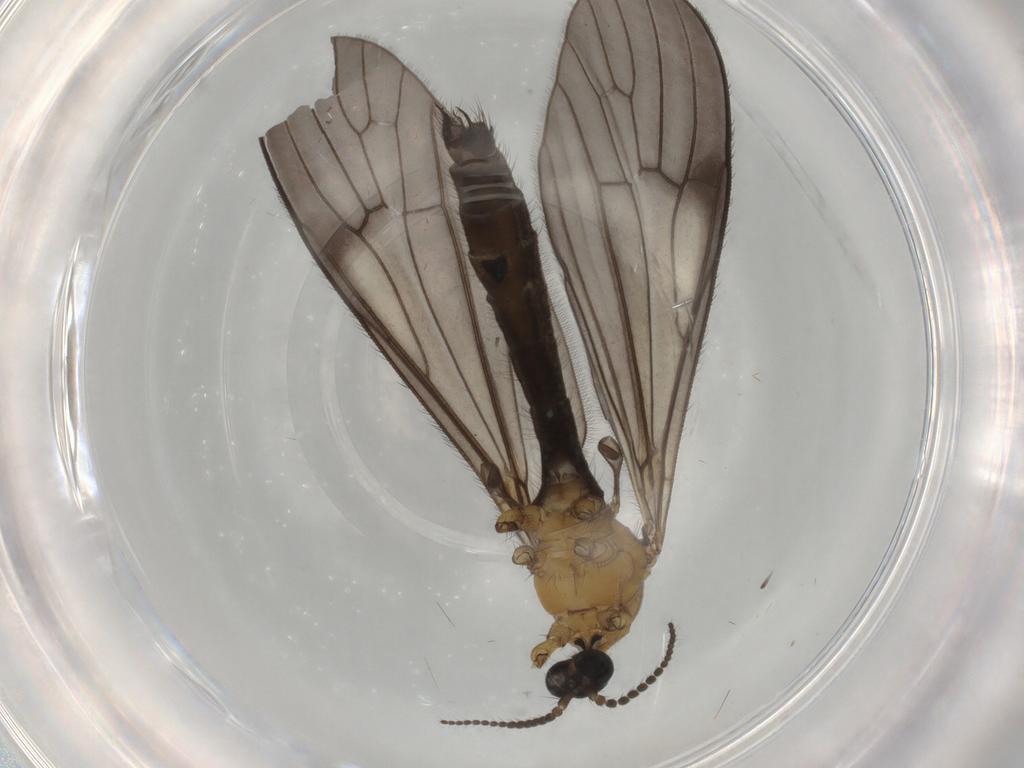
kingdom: Animalia
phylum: Arthropoda
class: Insecta
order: Diptera
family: Limoniidae
